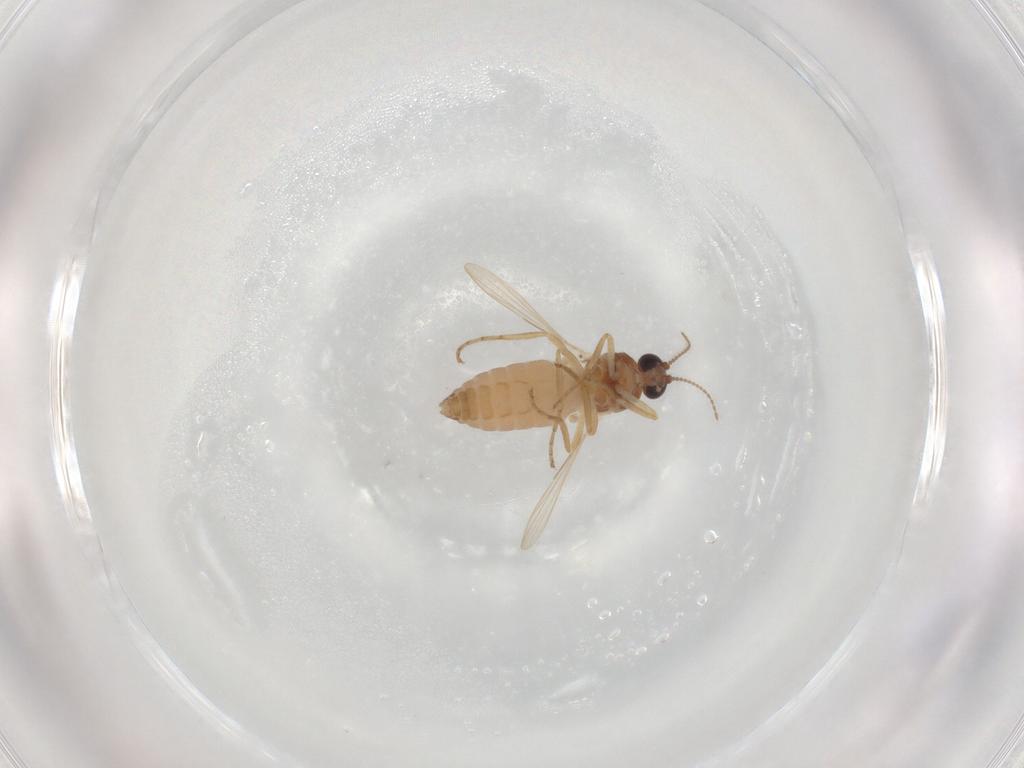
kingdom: Animalia
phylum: Arthropoda
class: Insecta
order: Diptera
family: Ceratopogonidae
